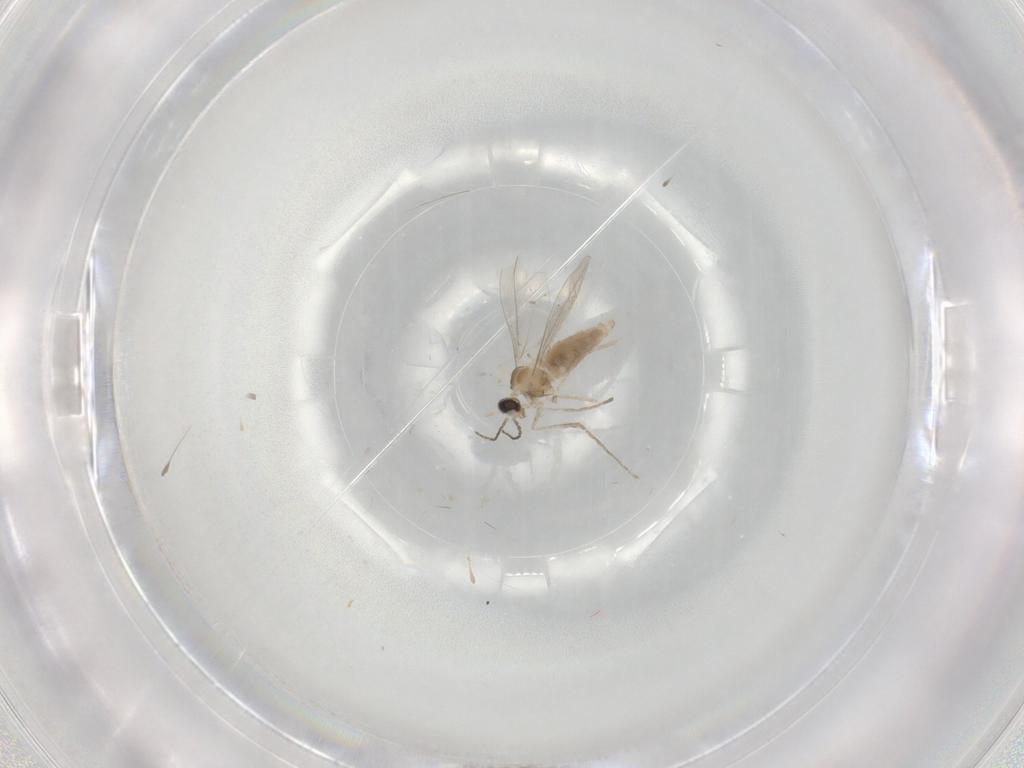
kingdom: Animalia
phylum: Arthropoda
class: Insecta
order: Diptera
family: Cecidomyiidae
